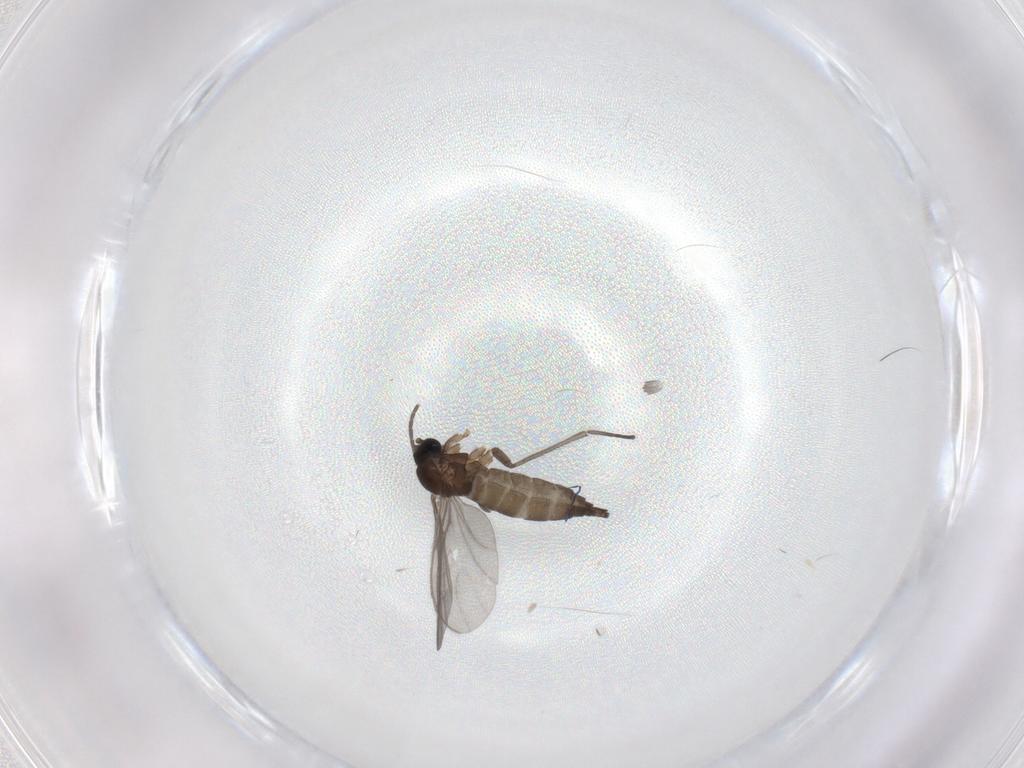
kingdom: Animalia
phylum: Arthropoda
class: Insecta
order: Diptera
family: Sciaridae
